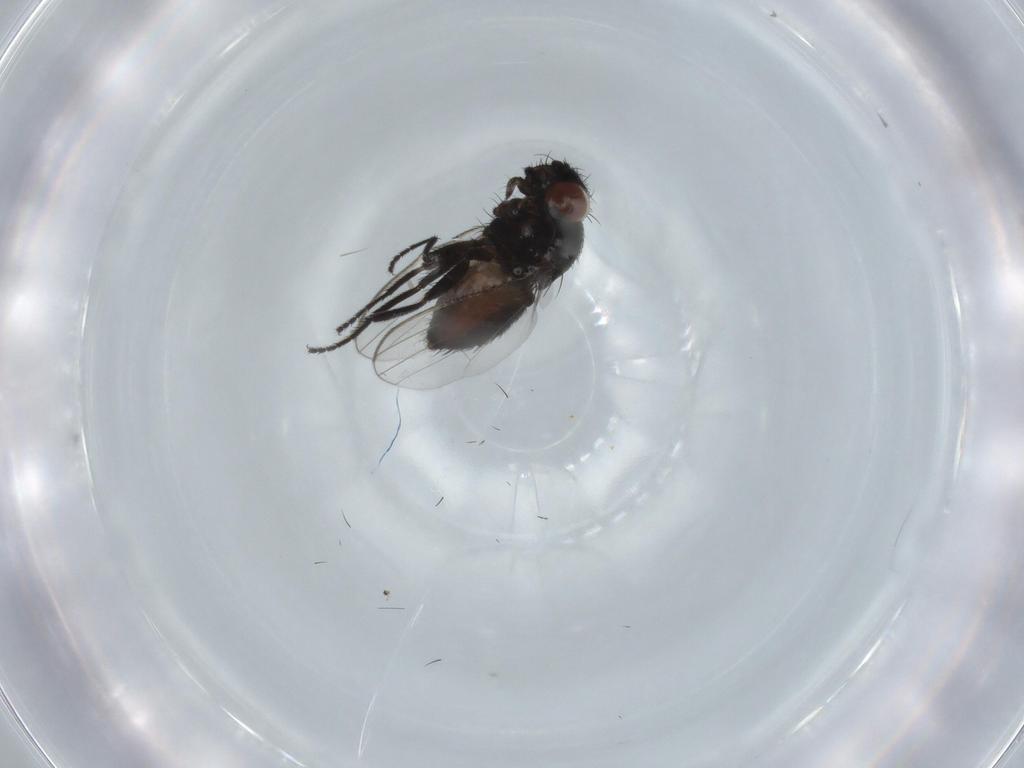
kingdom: Animalia
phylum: Arthropoda
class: Insecta
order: Diptera
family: Milichiidae
